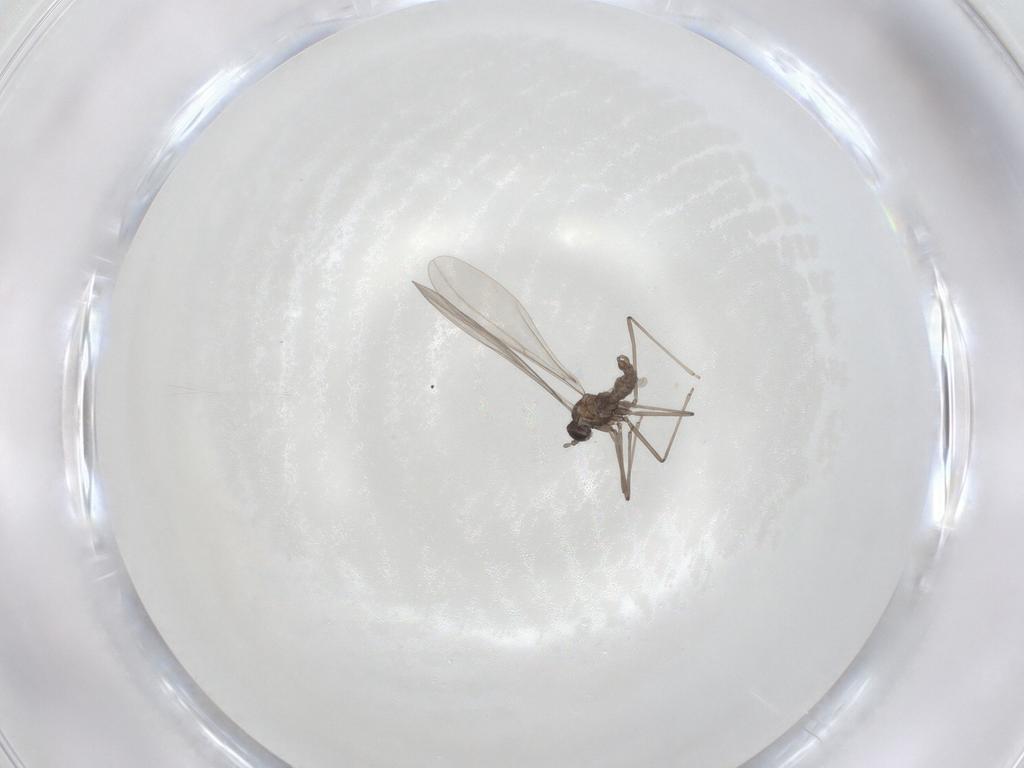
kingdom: Animalia
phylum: Arthropoda
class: Insecta
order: Diptera
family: Cecidomyiidae
